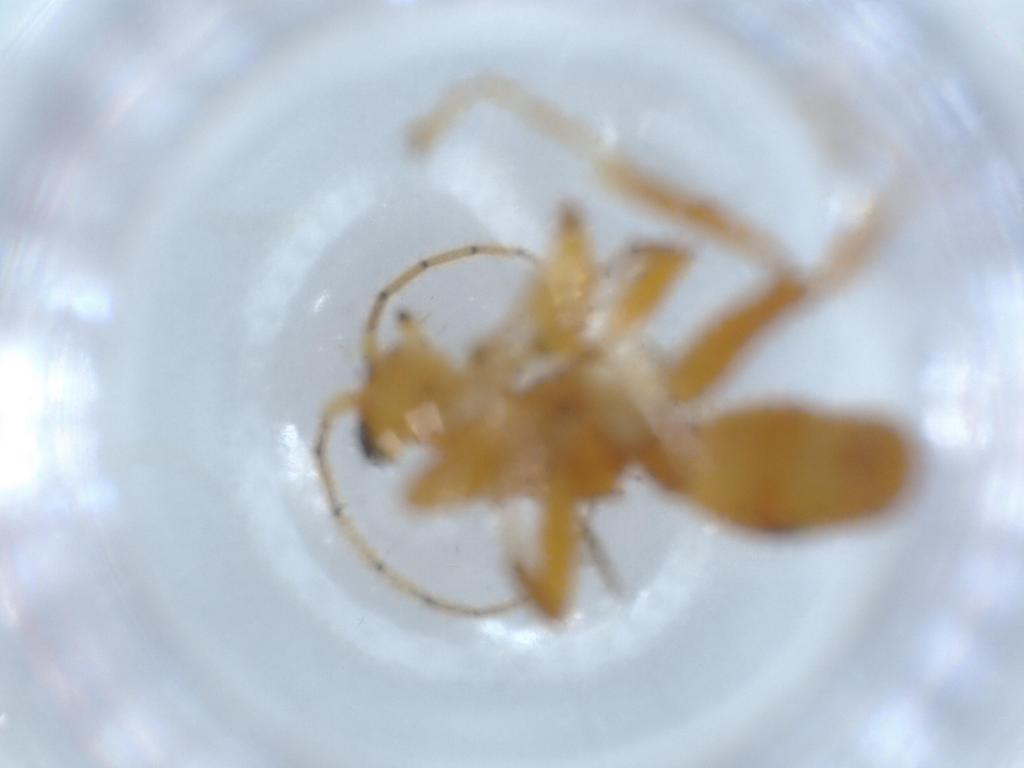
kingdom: Animalia
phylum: Arthropoda
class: Insecta
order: Hymenoptera
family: Rhopalosomatidae
